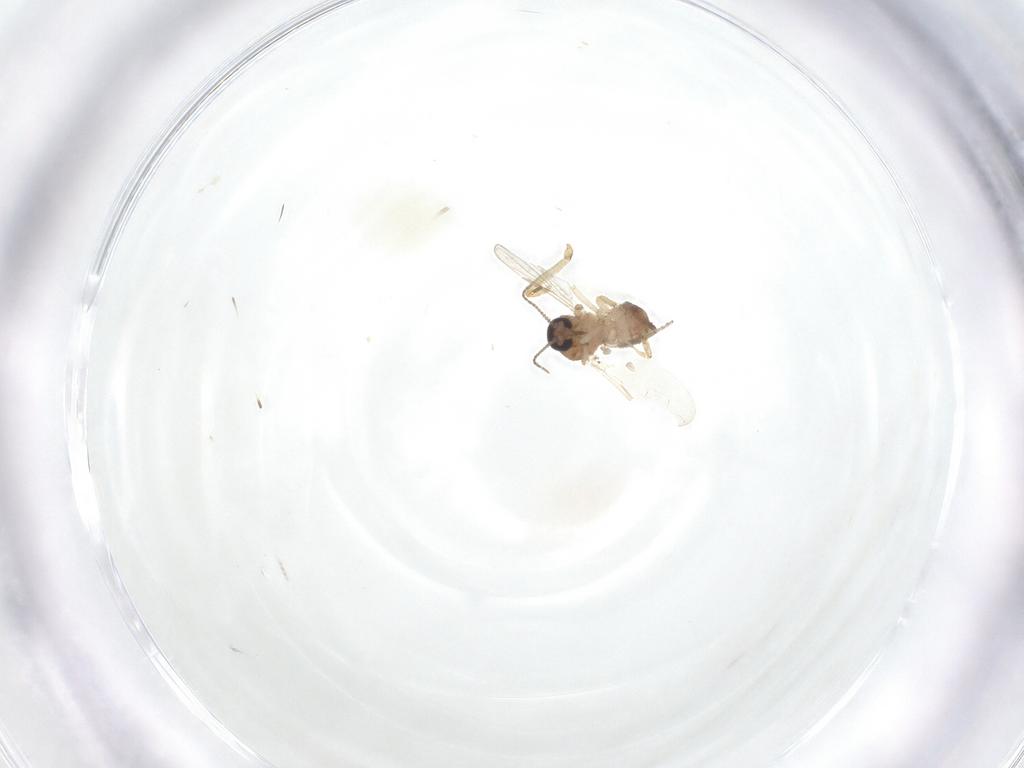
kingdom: Animalia
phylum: Arthropoda
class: Insecta
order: Diptera
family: Ceratopogonidae
